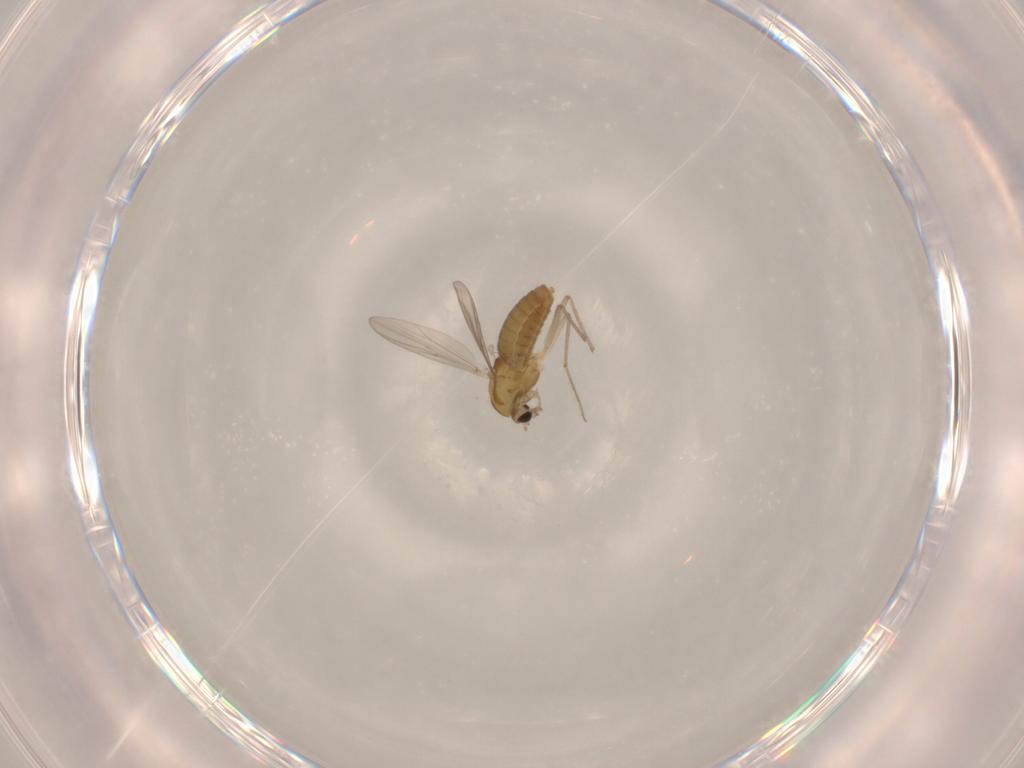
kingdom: Animalia
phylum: Arthropoda
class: Insecta
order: Diptera
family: Chironomidae
